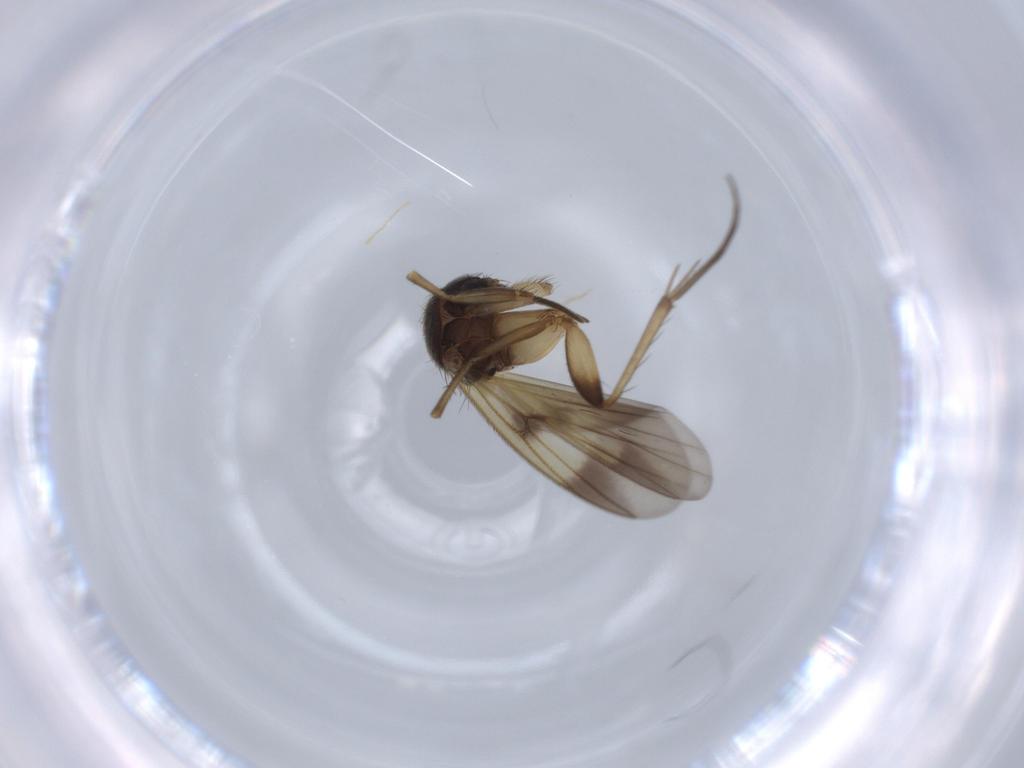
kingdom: Animalia
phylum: Arthropoda
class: Insecta
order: Diptera
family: Mycetophilidae
